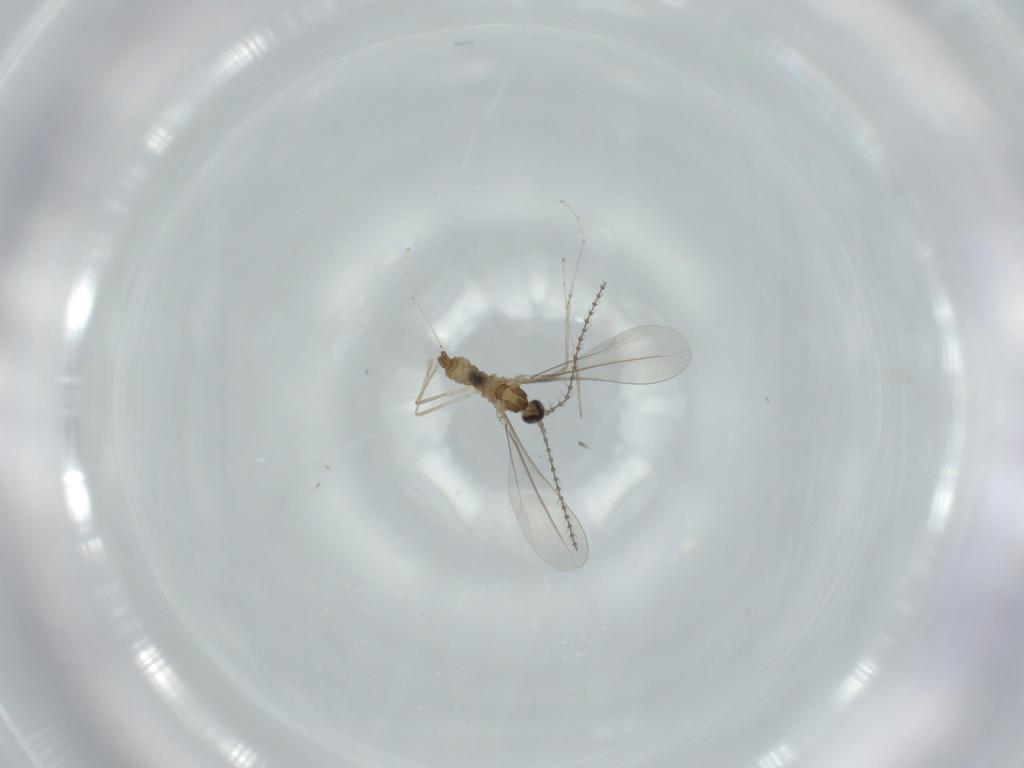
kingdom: Animalia
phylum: Arthropoda
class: Insecta
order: Diptera
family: Cecidomyiidae
